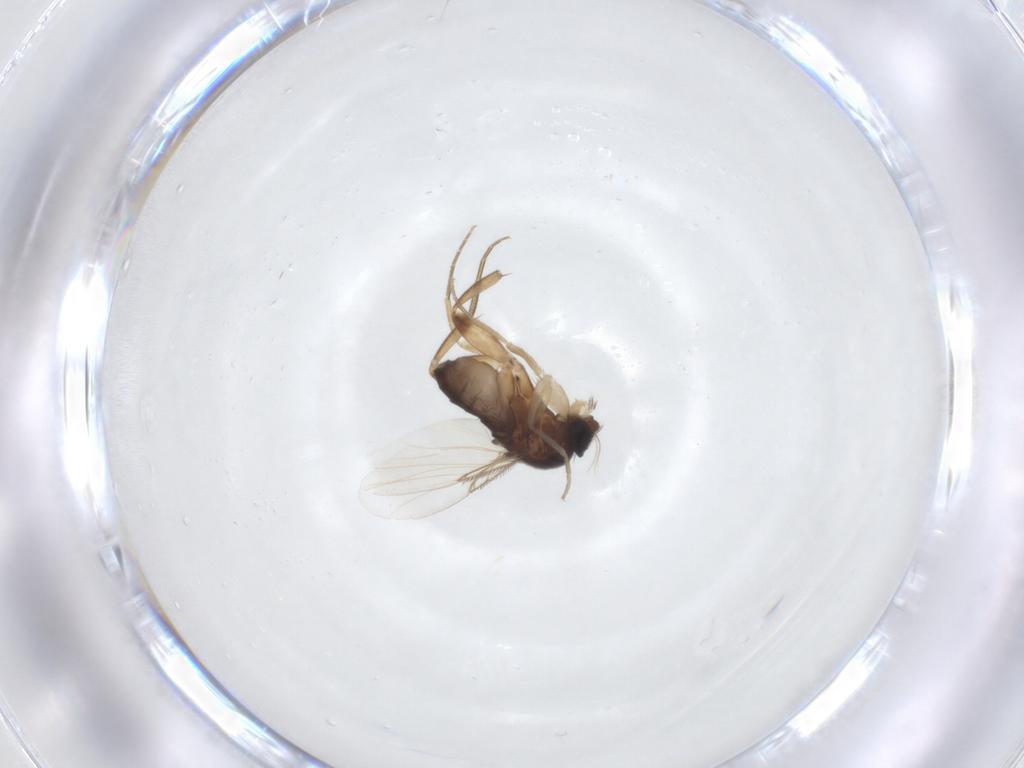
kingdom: Animalia
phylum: Arthropoda
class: Insecta
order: Diptera
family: Phoridae
